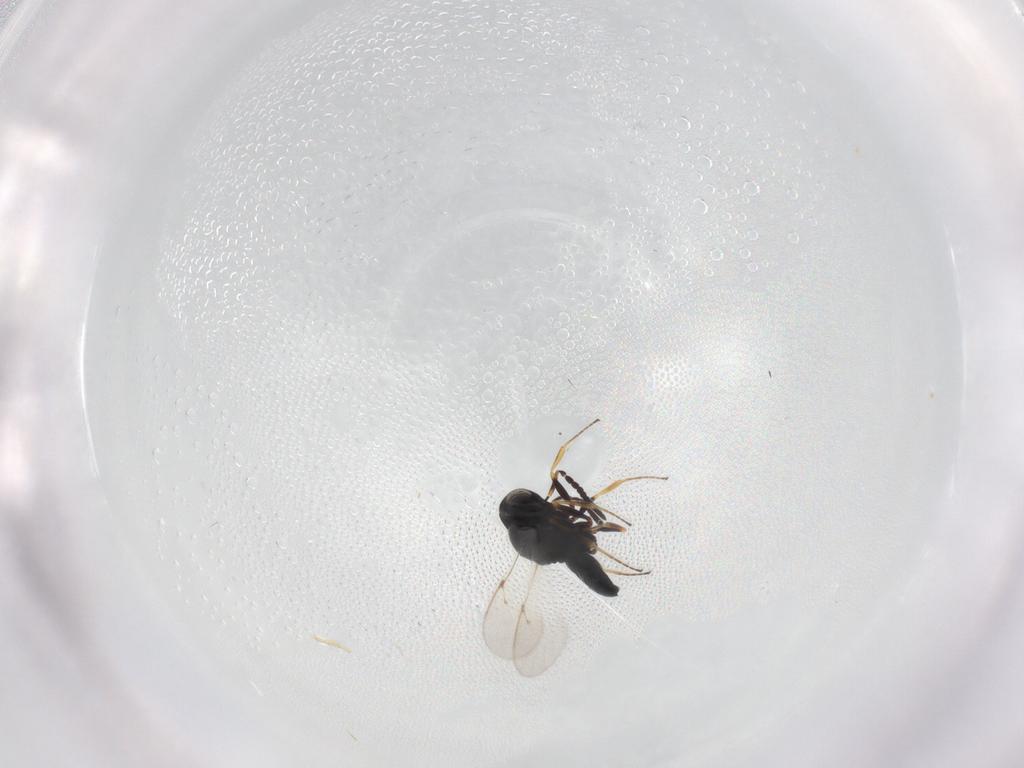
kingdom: Animalia
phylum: Arthropoda
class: Insecta
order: Hymenoptera
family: Scelionidae
